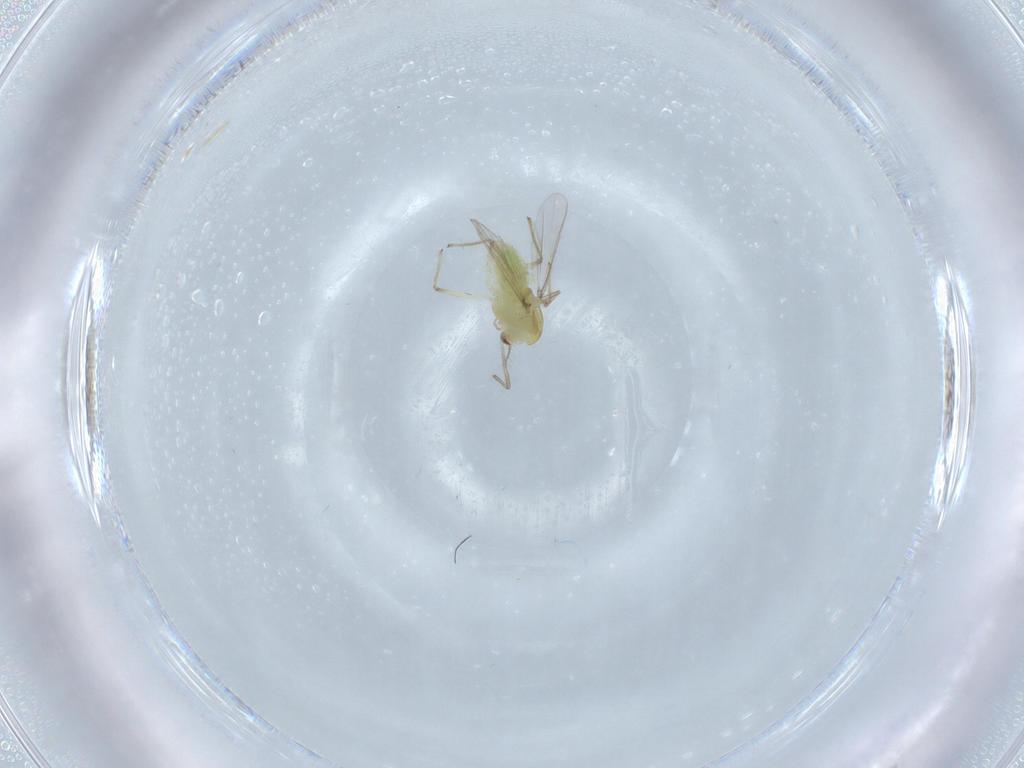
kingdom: Animalia
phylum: Arthropoda
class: Insecta
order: Diptera
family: Chironomidae
